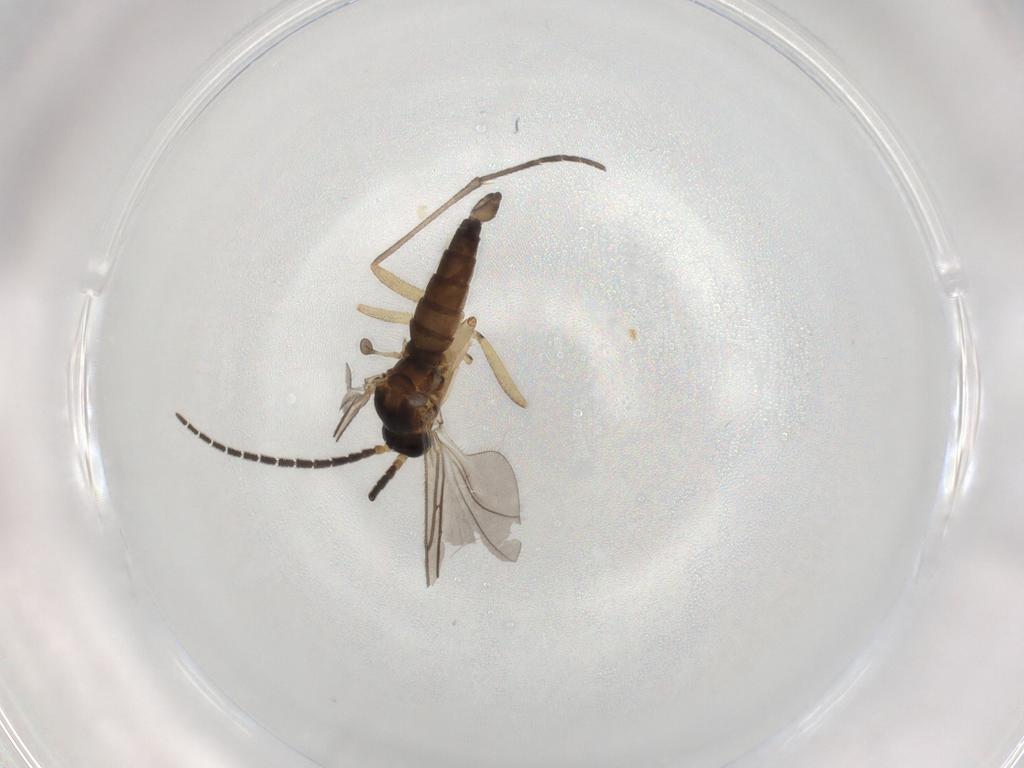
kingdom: Animalia
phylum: Arthropoda
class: Insecta
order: Diptera
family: Sciaridae
